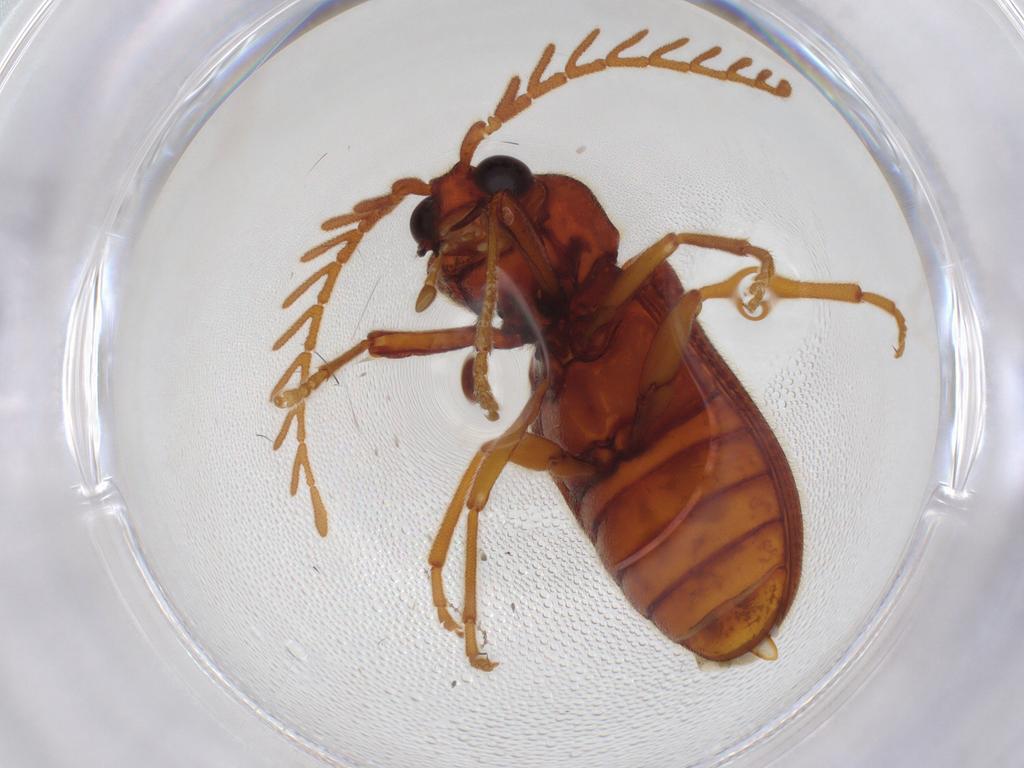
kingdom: Animalia
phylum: Arthropoda
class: Insecta
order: Coleoptera
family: Cerophytidae
